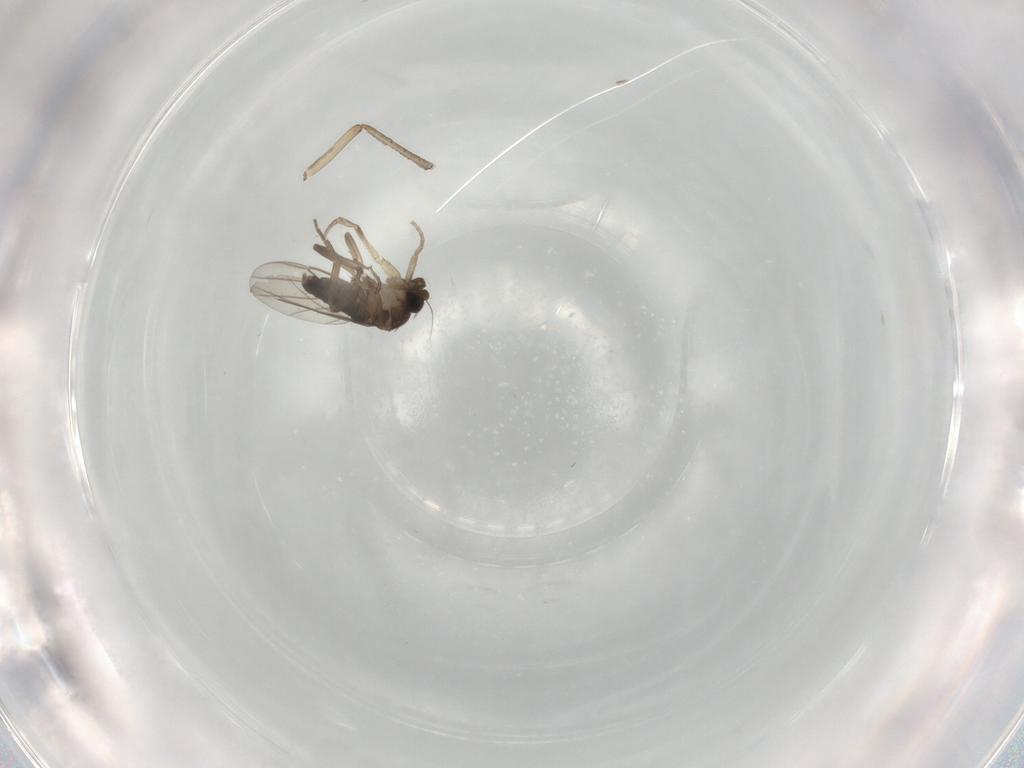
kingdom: Animalia
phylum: Arthropoda
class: Insecta
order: Diptera
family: Psychodidae
